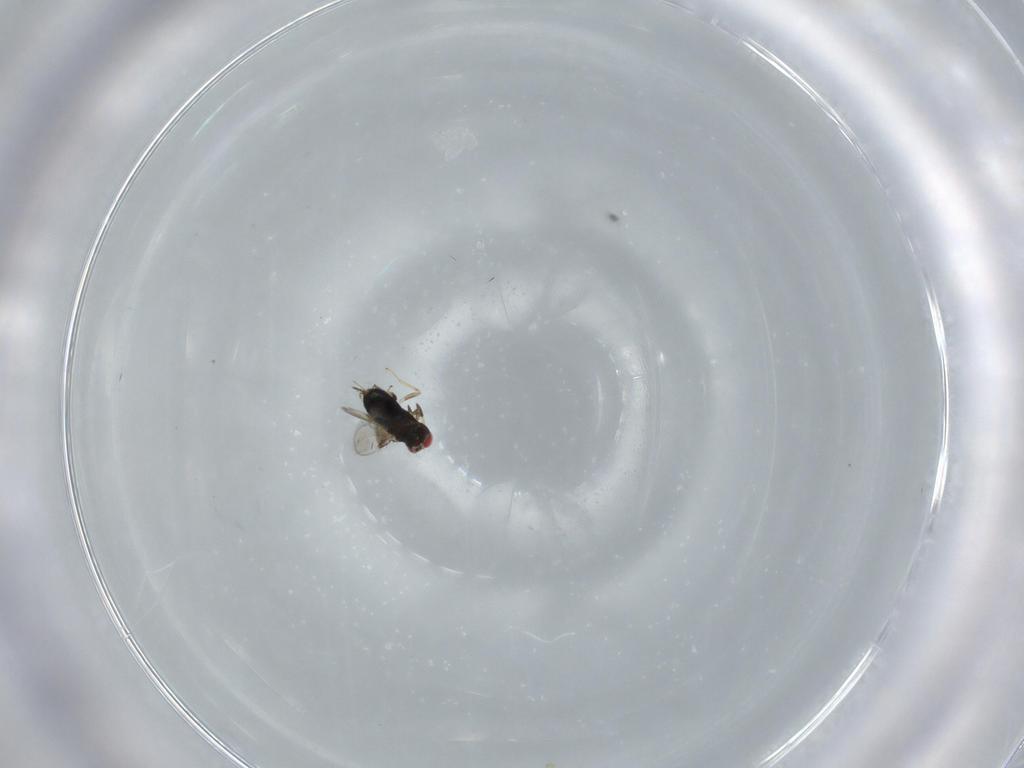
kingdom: Animalia
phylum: Arthropoda
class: Insecta
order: Hymenoptera
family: Azotidae
